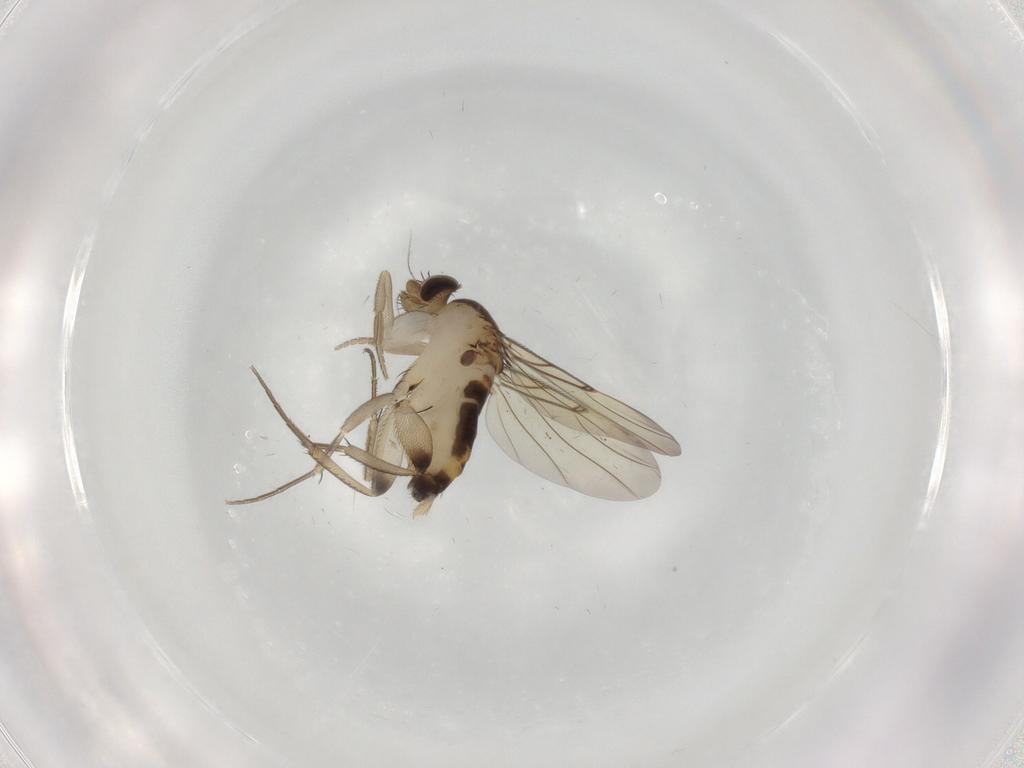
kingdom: Animalia
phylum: Arthropoda
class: Insecta
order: Diptera
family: Phoridae
